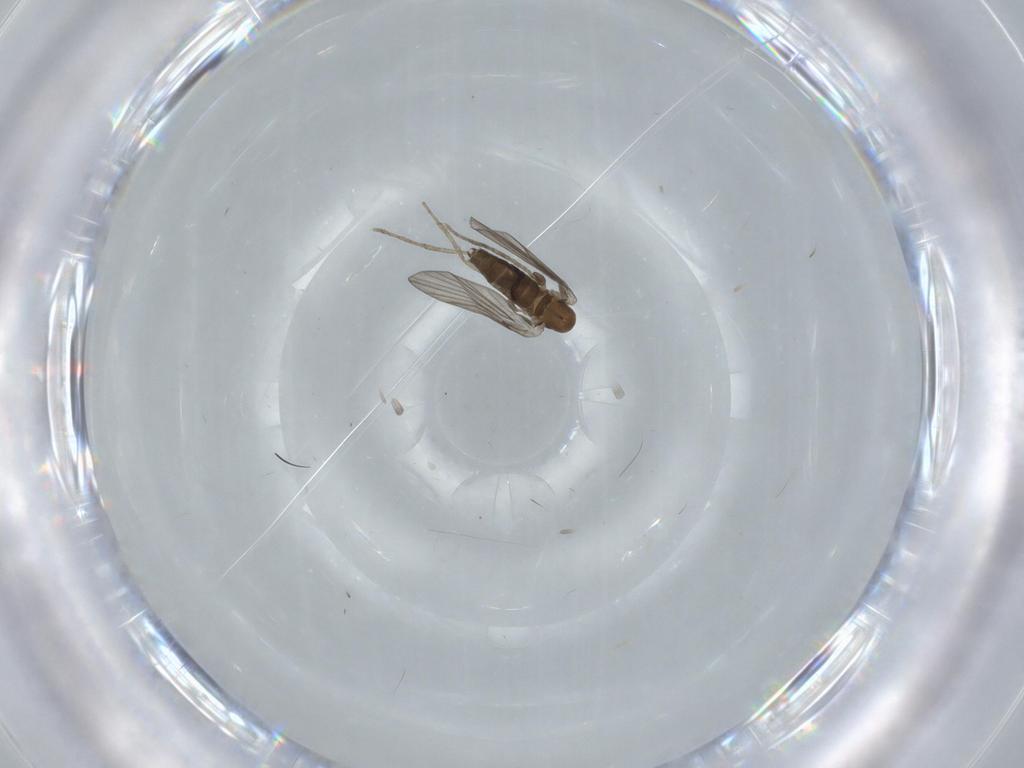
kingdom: Animalia
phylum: Arthropoda
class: Insecta
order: Diptera
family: Psychodidae
